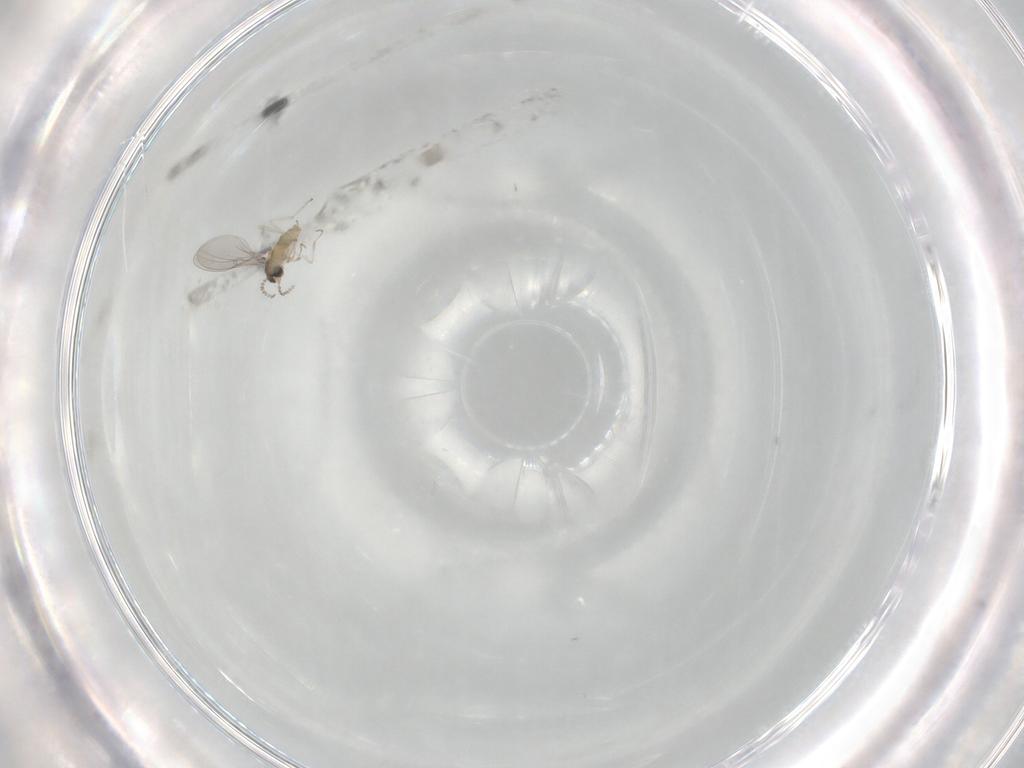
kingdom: Animalia
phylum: Arthropoda
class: Insecta
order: Diptera
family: Cecidomyiidae
